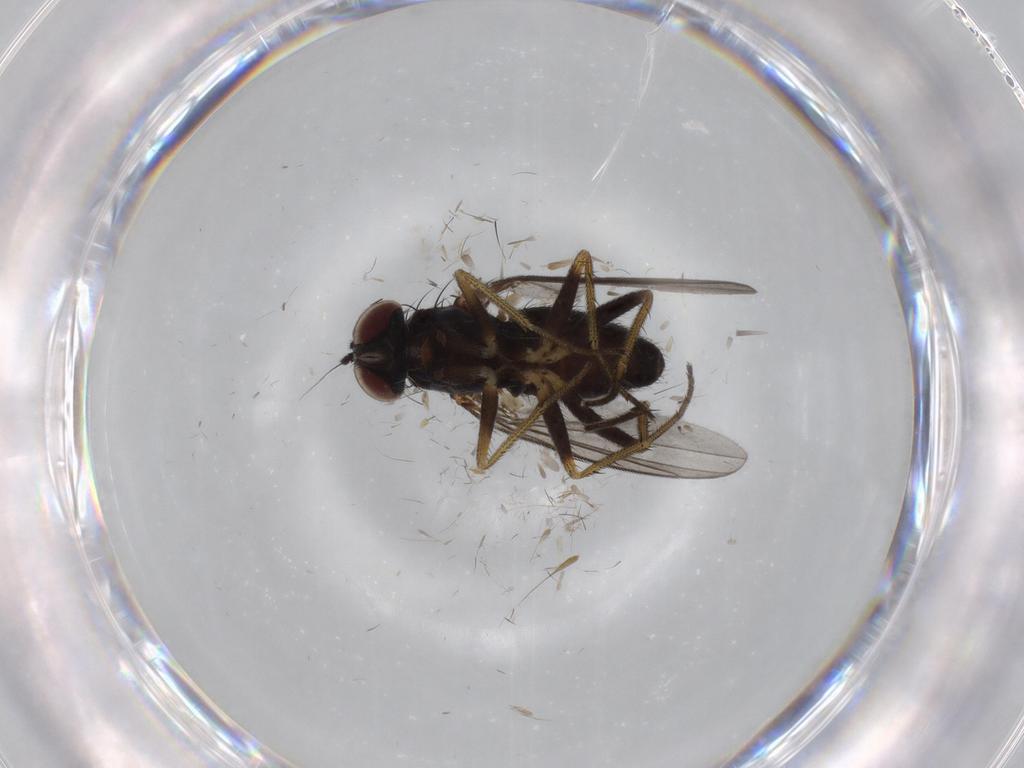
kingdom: Animalia
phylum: Arthropoda
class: Insecta
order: Diptera
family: Dolichopodidae
